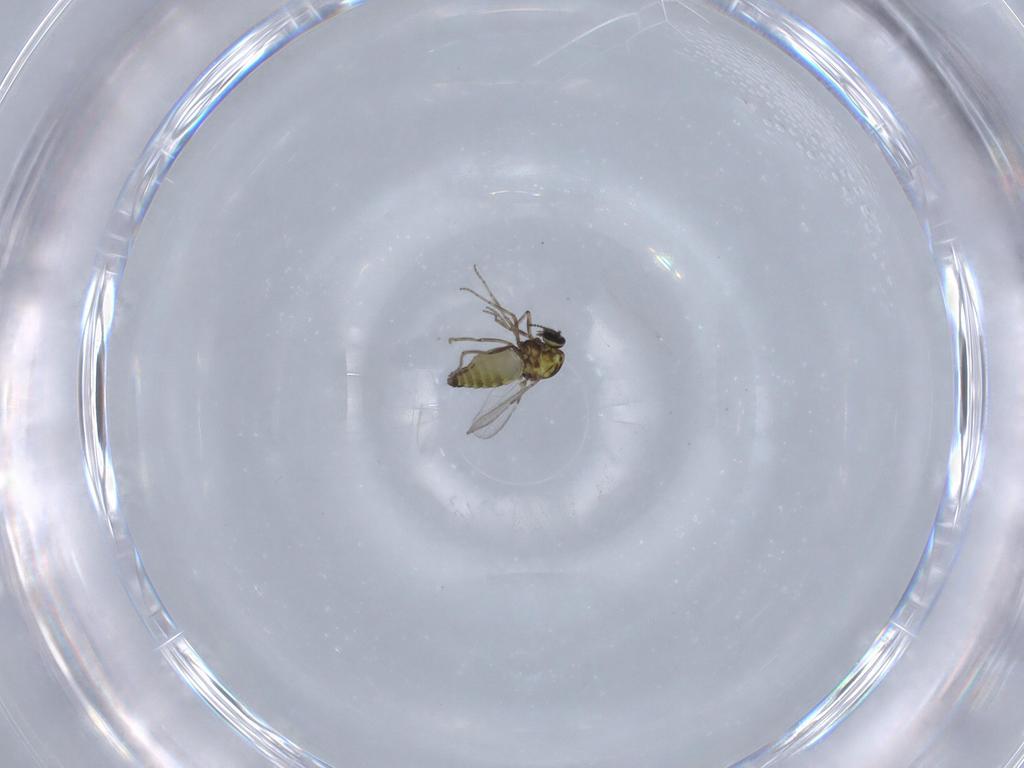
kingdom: Animalia
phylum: Arthropoda
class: Insecta
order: Diptera
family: Ceratopogonidae
